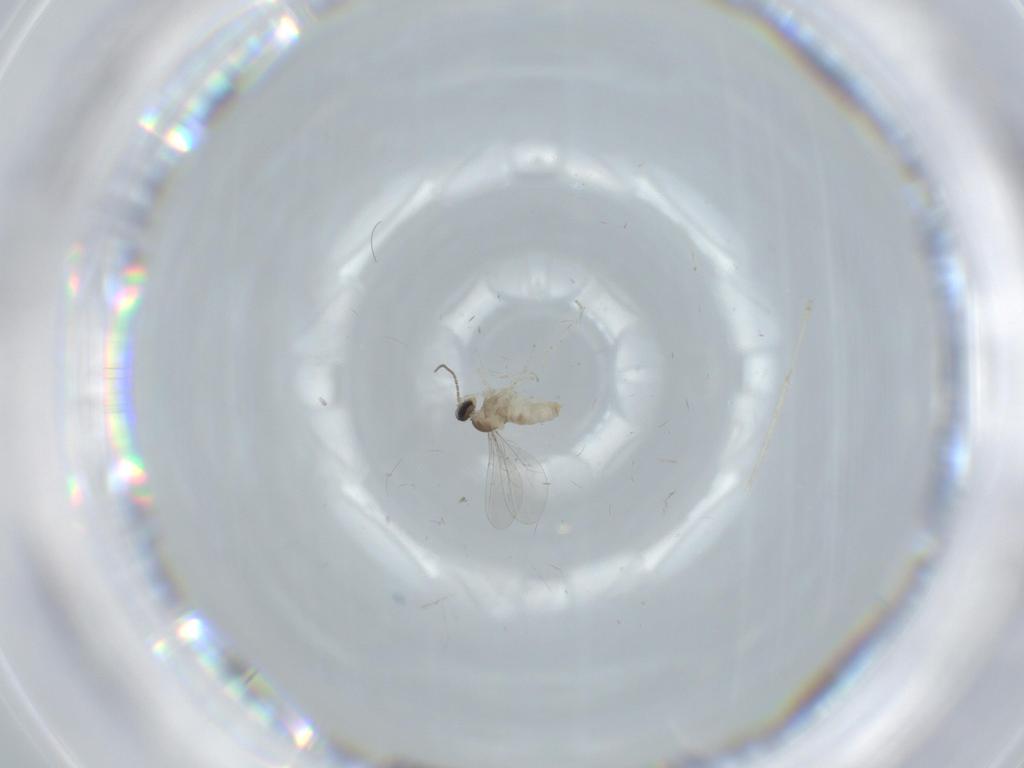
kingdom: Animalia
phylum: Arthropoda
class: Insecta
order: Diptera
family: Cecidomyiidae
